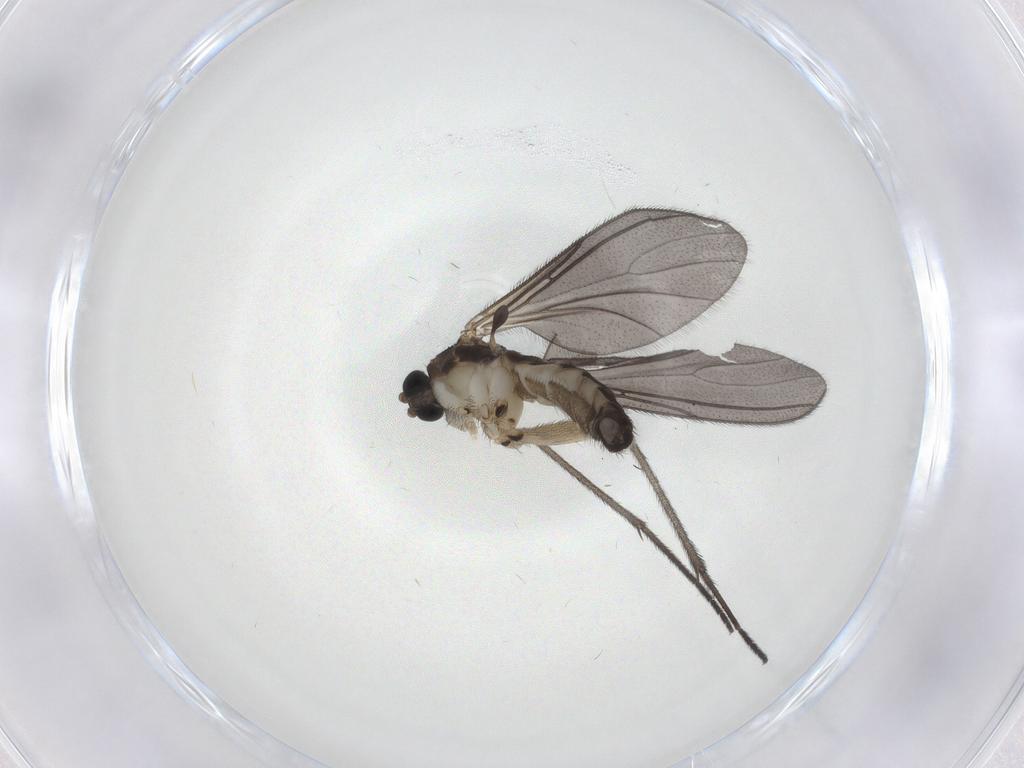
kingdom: Animalia
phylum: Arthropoda
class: Insecta
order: Diptera
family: Sciaridae
